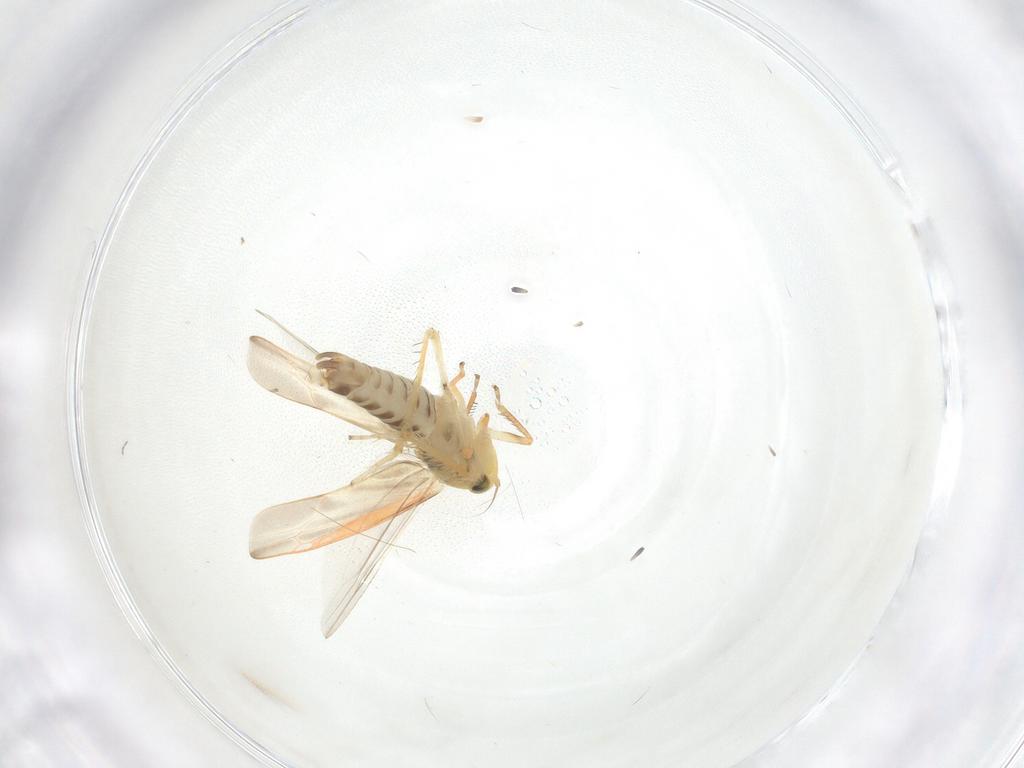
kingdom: Animalia
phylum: Arthropoda
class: Insecta
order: Hemiptera
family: Cicadellidae
